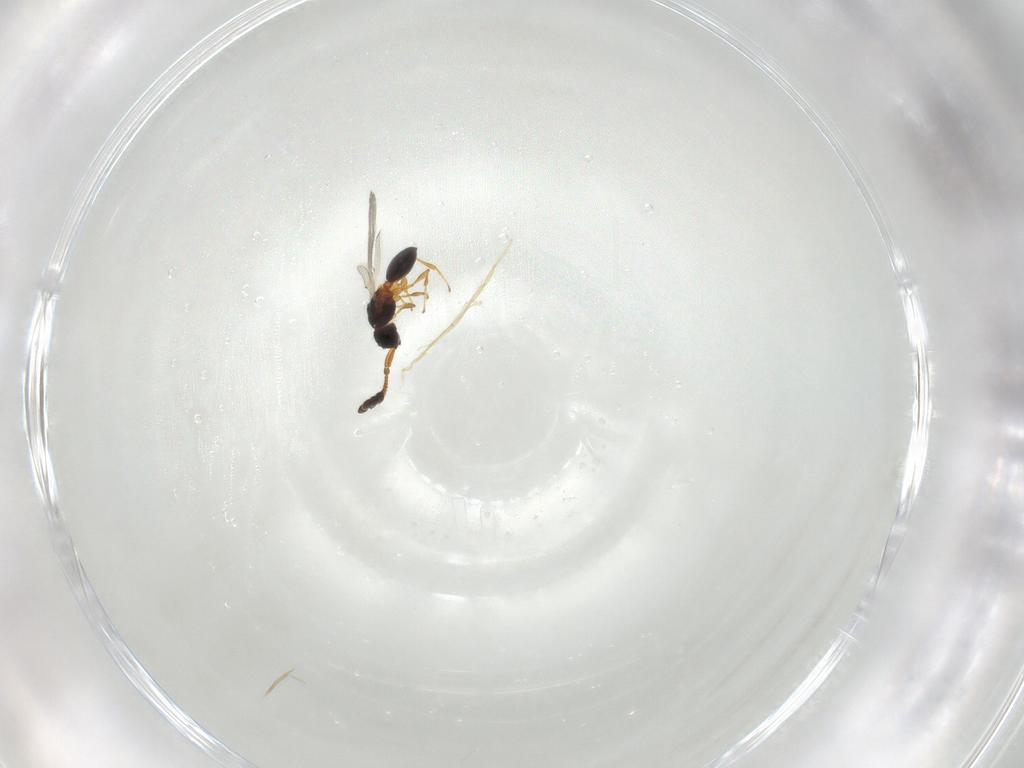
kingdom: Animalia
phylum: Arthropoda
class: Insecta
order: Hymenoptera
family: Diapriidae
